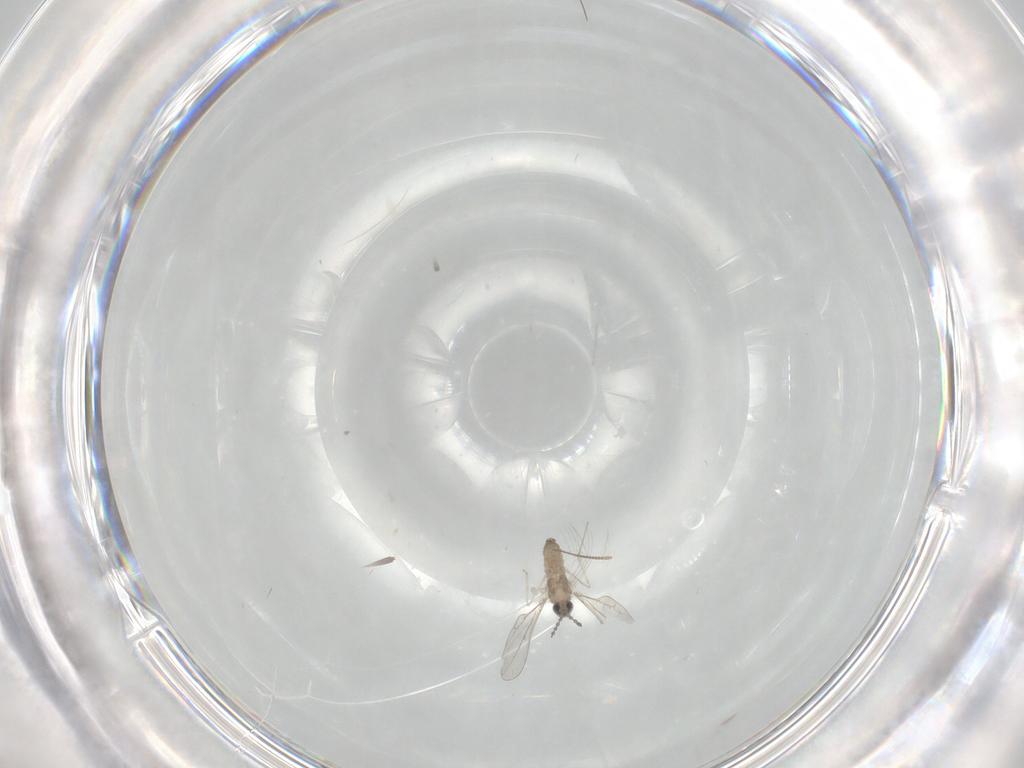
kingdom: Animalia
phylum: Arthropoda
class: Insecta
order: Diptera
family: Cecidomyiidae
